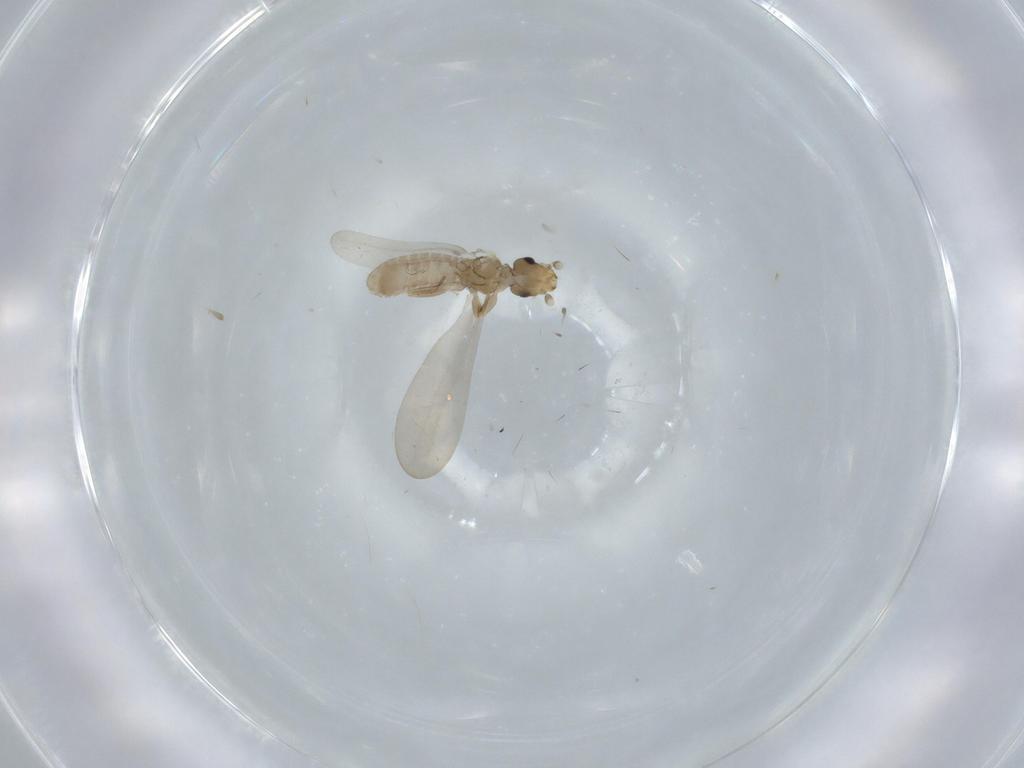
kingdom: Animalia
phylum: Arthropoda
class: Insecta
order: Psocodea
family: Liposcelididae
